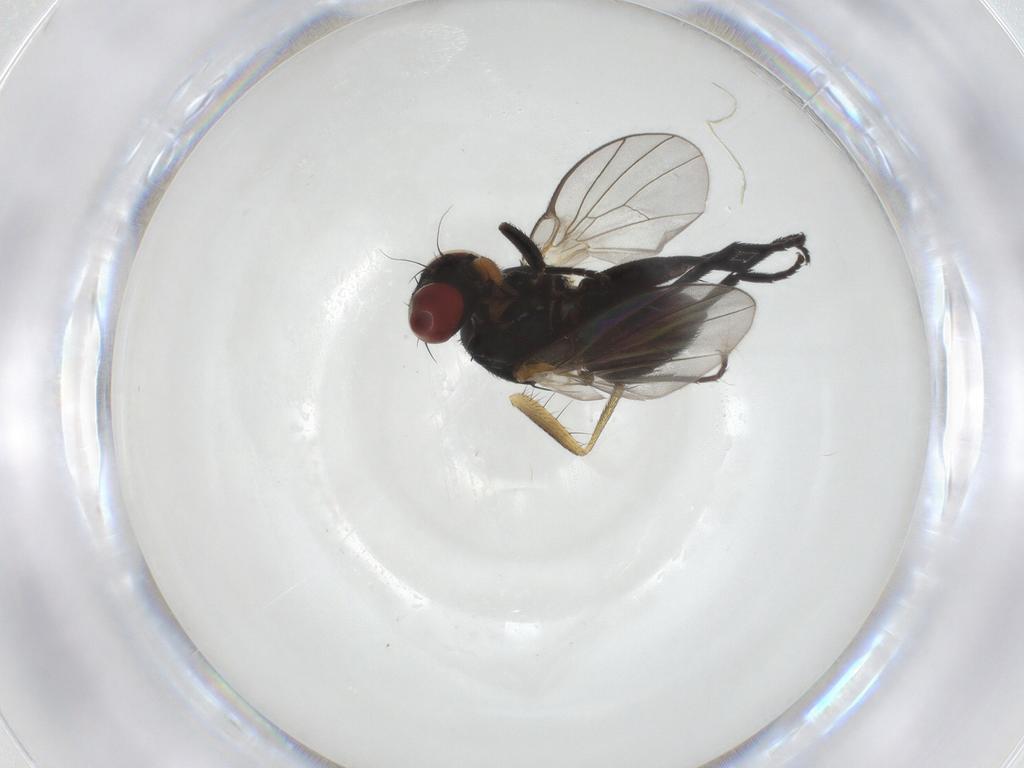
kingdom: Animalia
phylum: Arthropoda
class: Insecta
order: Diptera
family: Agromyzidae
